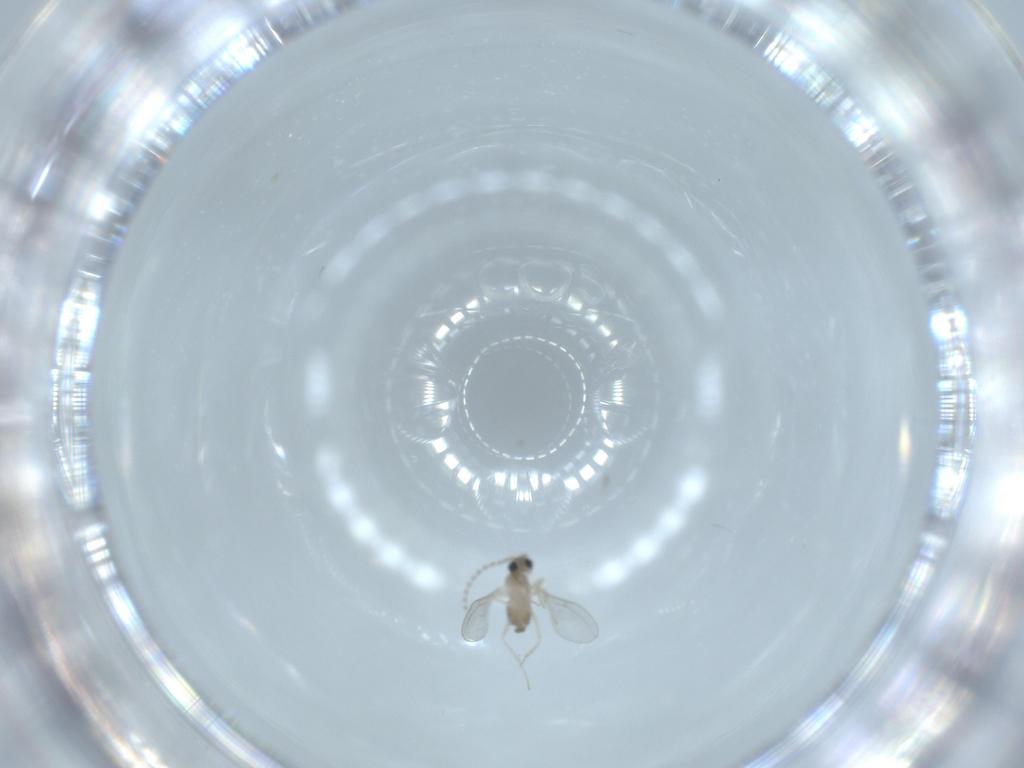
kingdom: Animalia
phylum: Arthropoda
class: Insecta
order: Diptera
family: Cecidomyiidae
